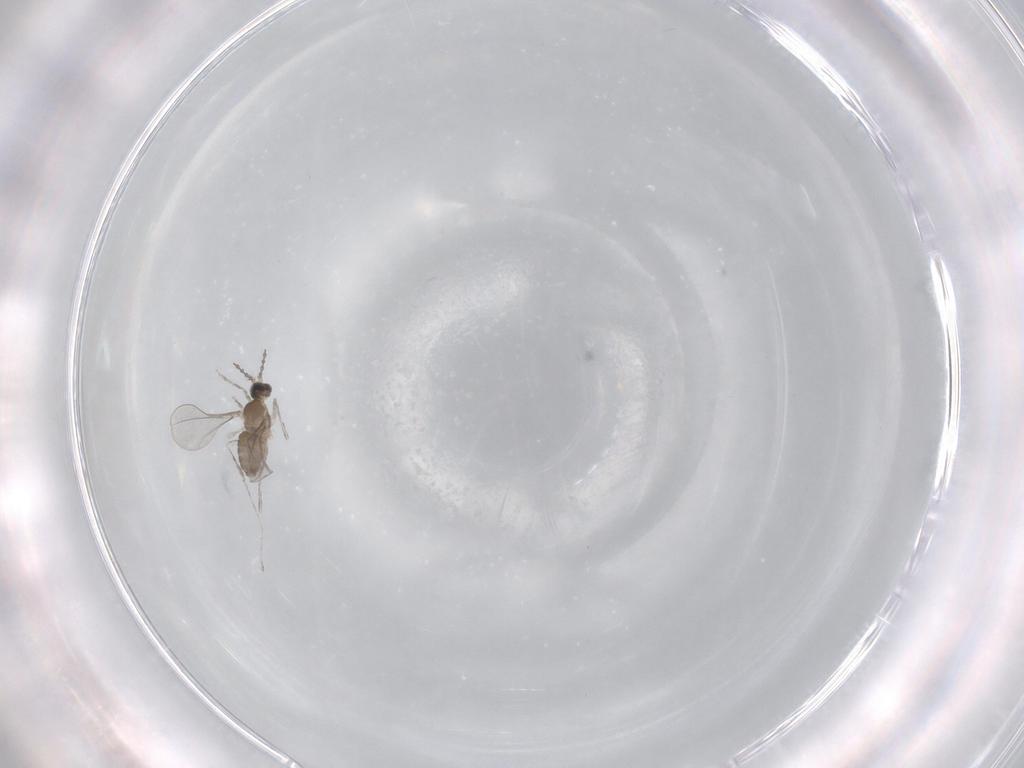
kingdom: Animalia
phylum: Arthropoda
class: Insecta
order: Diptera
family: Cecidomyiidae
